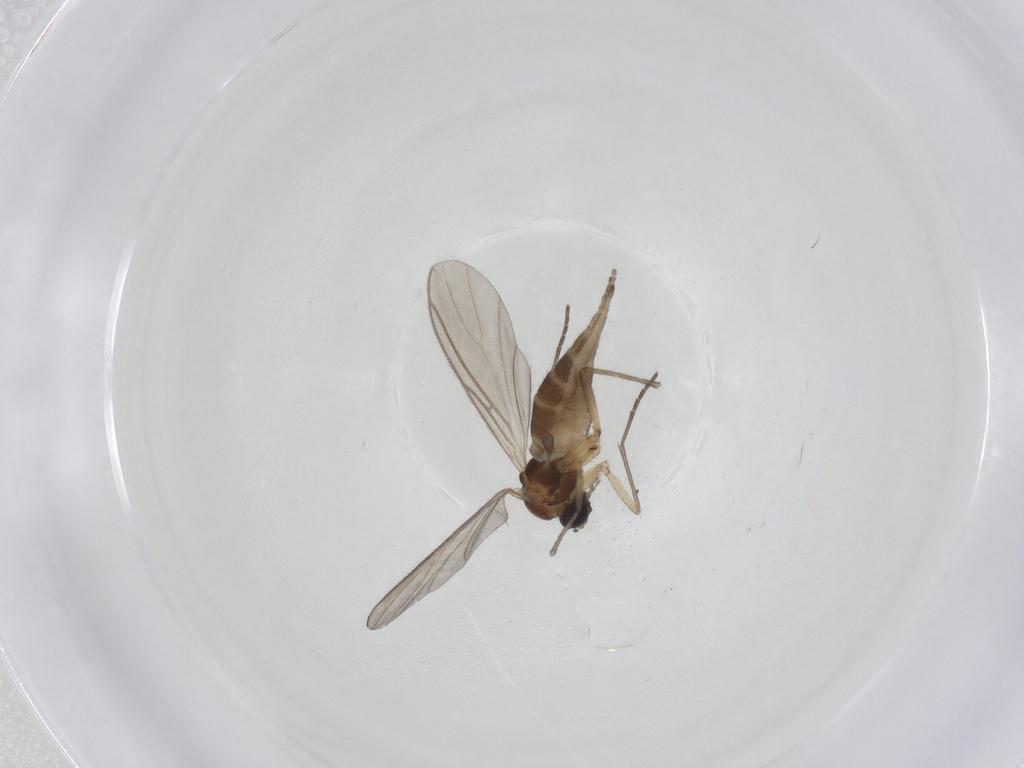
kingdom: Animalia
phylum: Arthropoda
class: Insecta
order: Diptera
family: Sciaridae
